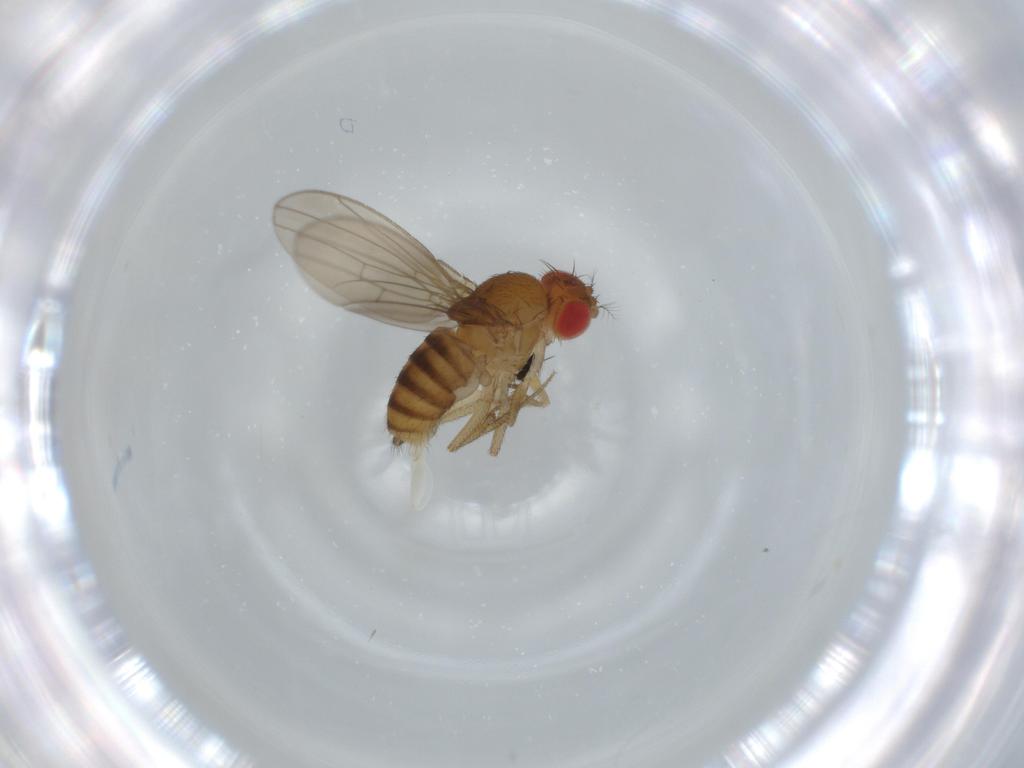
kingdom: Animalia
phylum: Arthropoda
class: Insecta
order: Diptera
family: Drosophilidae
